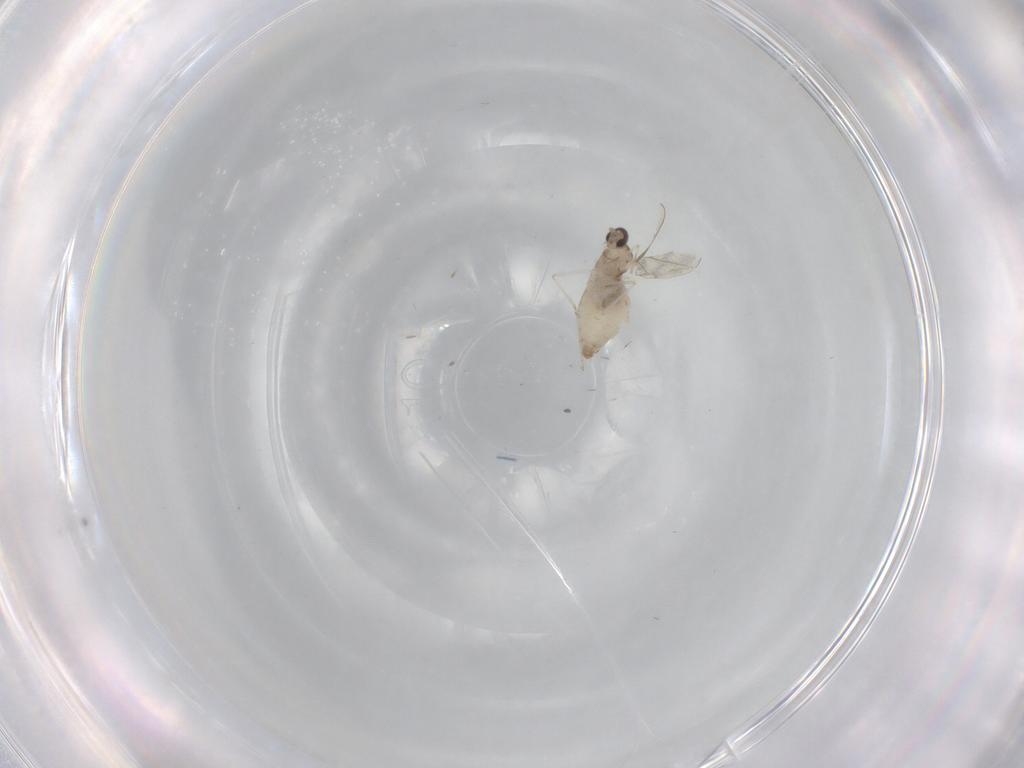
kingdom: Animalia
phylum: Arthropoda
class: Insecta
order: Diptera
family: Cecidomyiidae
